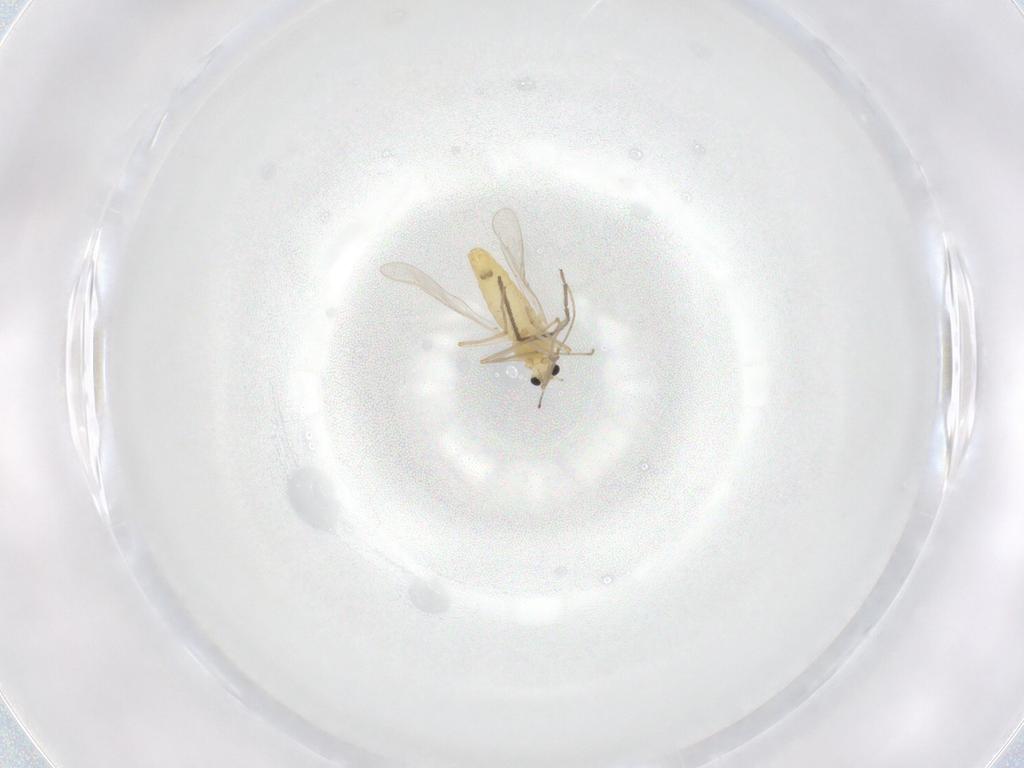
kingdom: Animalia
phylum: Arthropoda
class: Insecta
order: Diptera
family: Chironomidae
